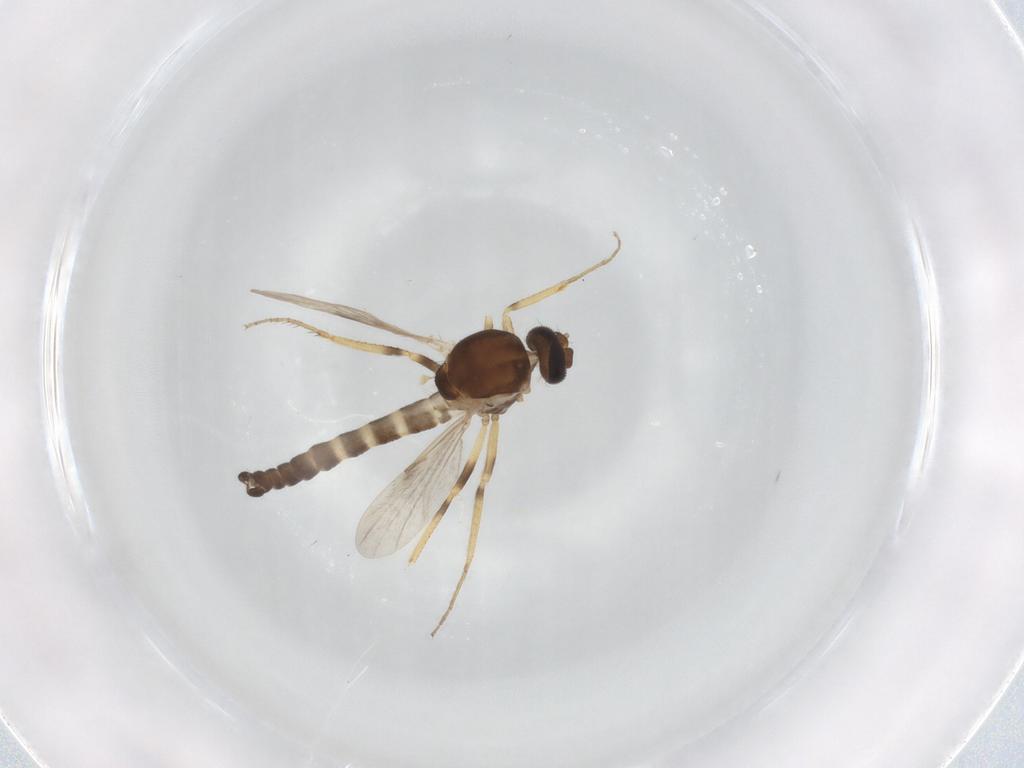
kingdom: Animalia
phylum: Arthropoda
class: Insecta
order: Diptera
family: Ceratopogonidae
